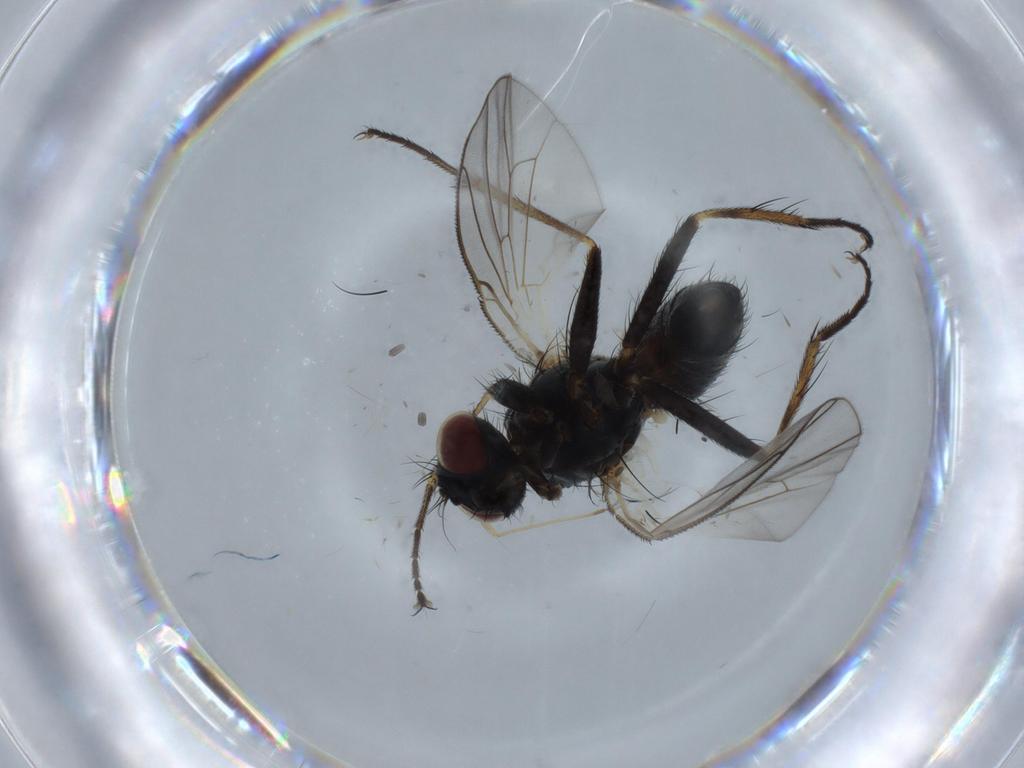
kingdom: Animalia
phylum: Arthropoda
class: Insecta
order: Diptera
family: Muscidae
